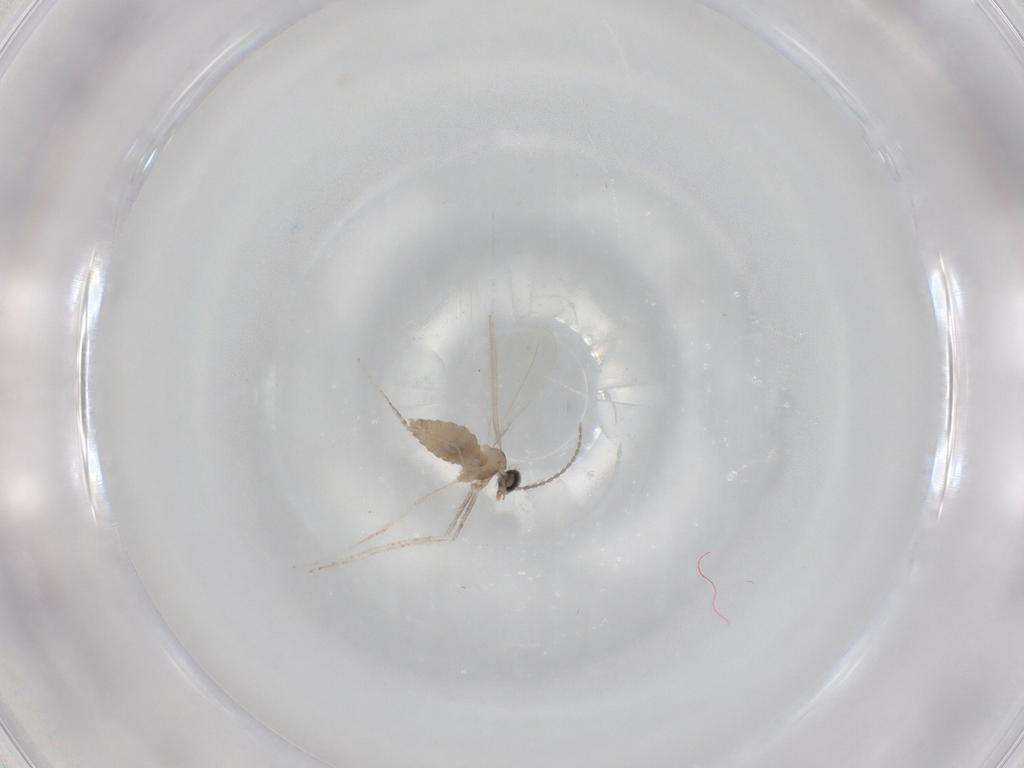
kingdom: Animalia
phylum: Arthropoda
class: Insecta
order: Diptera
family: Cecidomyiidae
